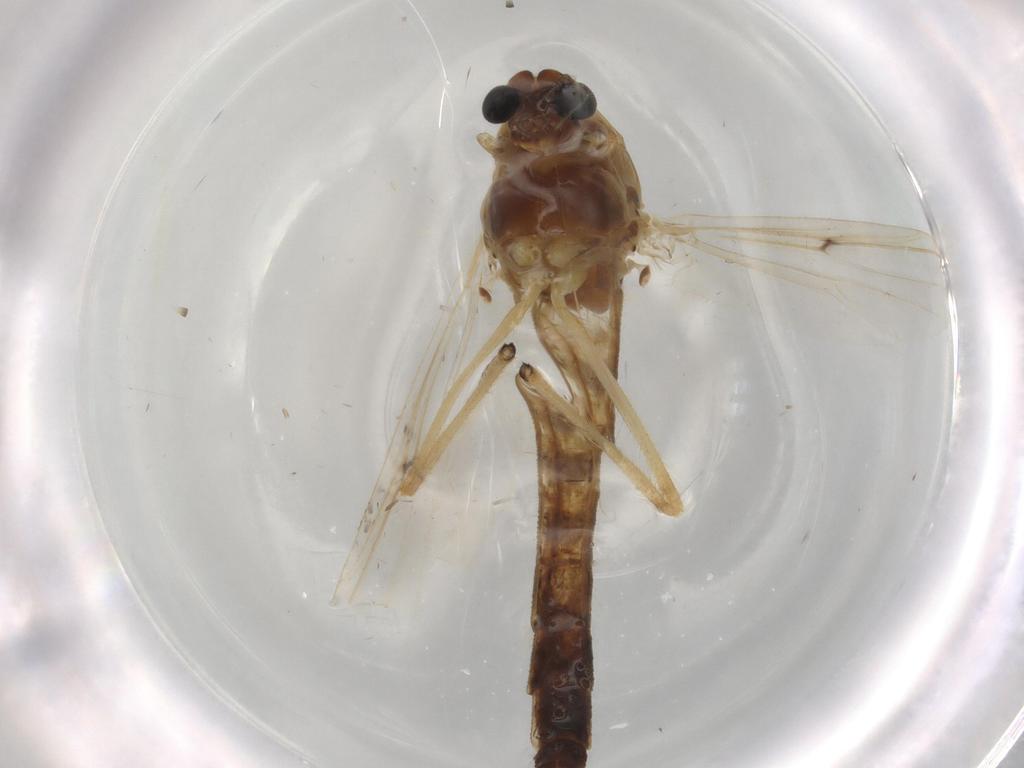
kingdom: Animalia
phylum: Arthropoda
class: Insecta
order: Diptera
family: Chironomidae
